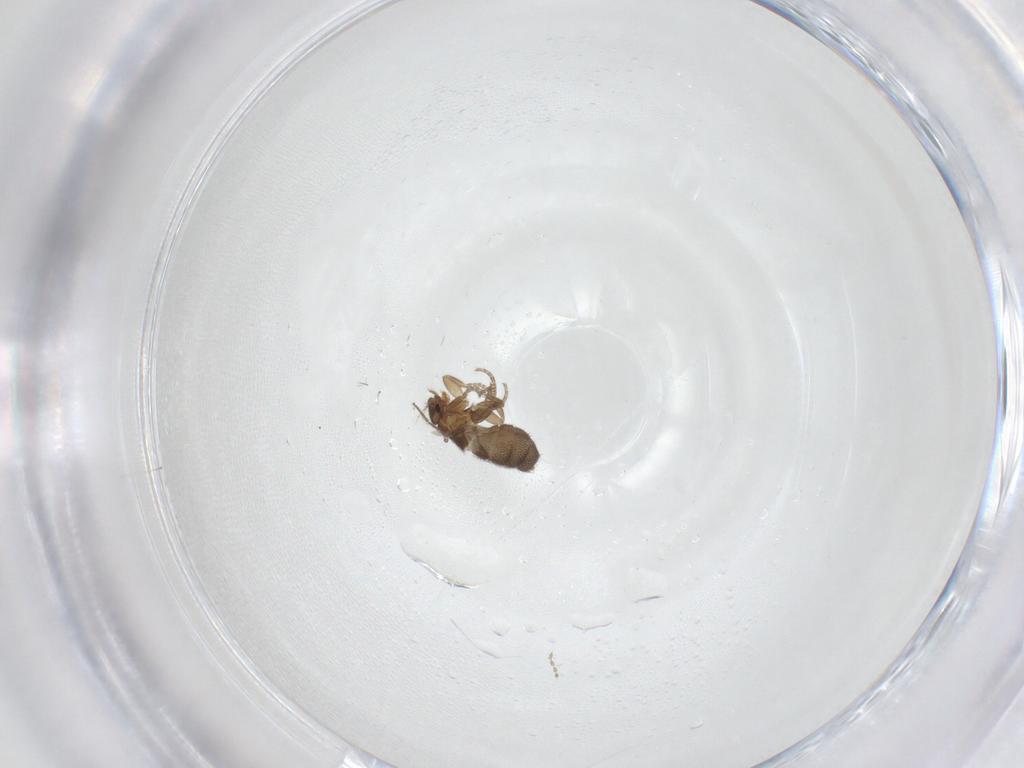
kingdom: Animalia
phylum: Arthropoda
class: Insecta
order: Diptera
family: Phoridae
